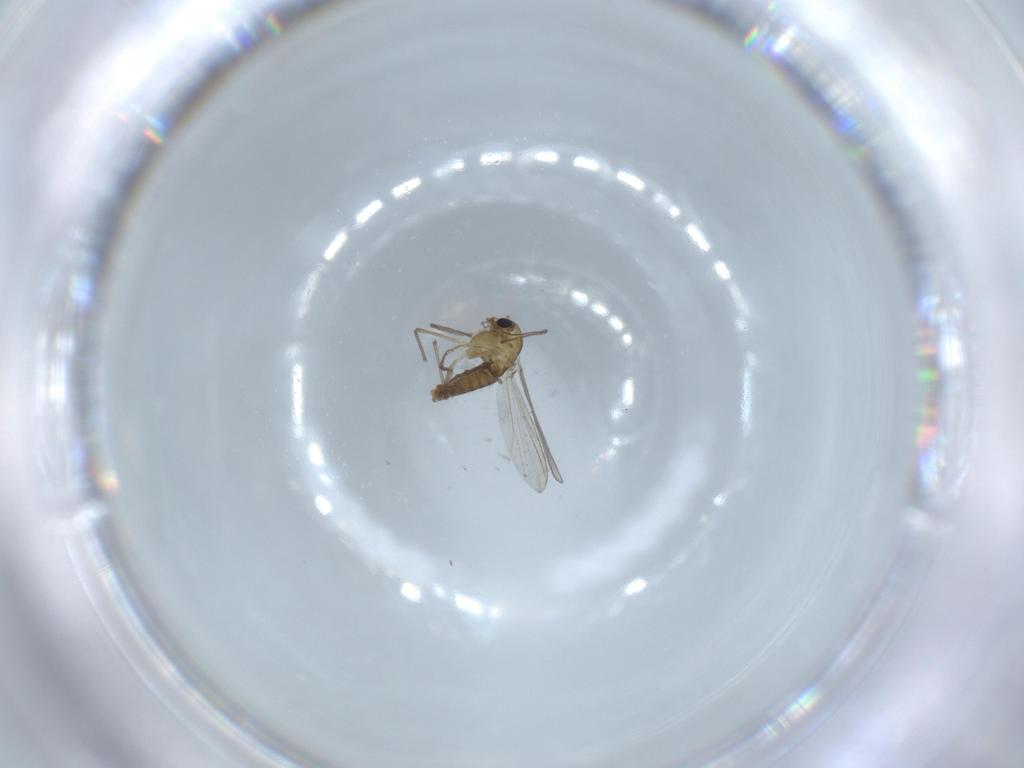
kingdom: Animalia
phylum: Arthropoda
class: Insecta
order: Diptera
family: Chironomidae
